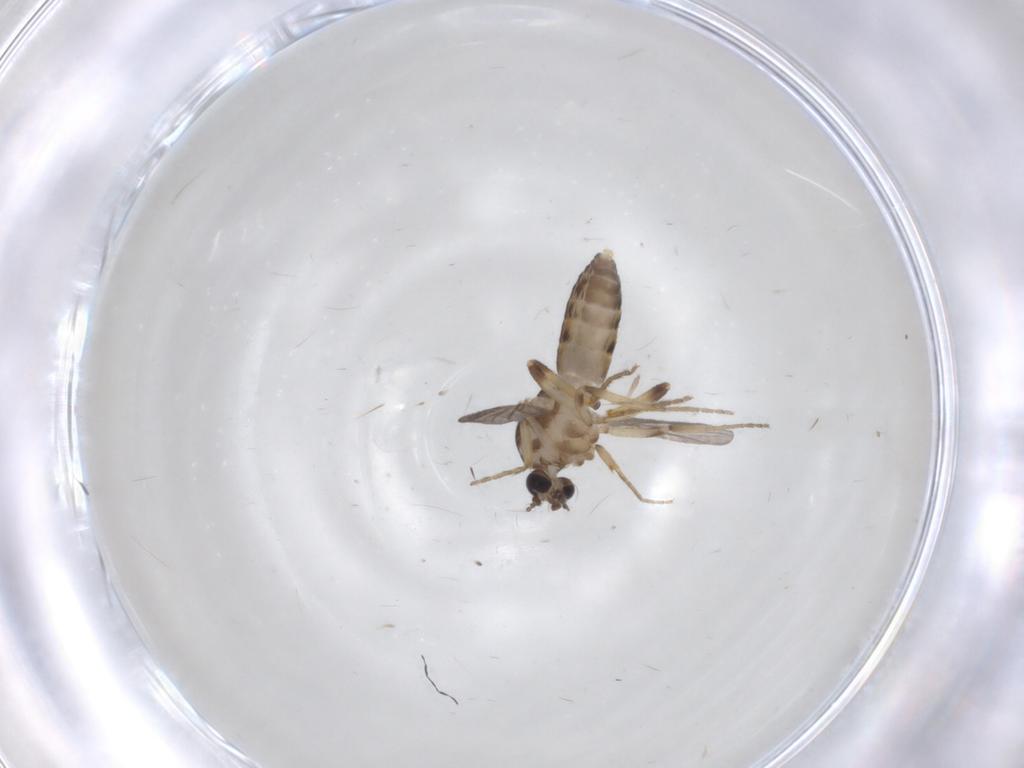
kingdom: Animalia
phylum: Arthropoda
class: Insecta
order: Diptera
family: Ceratopogonidae
